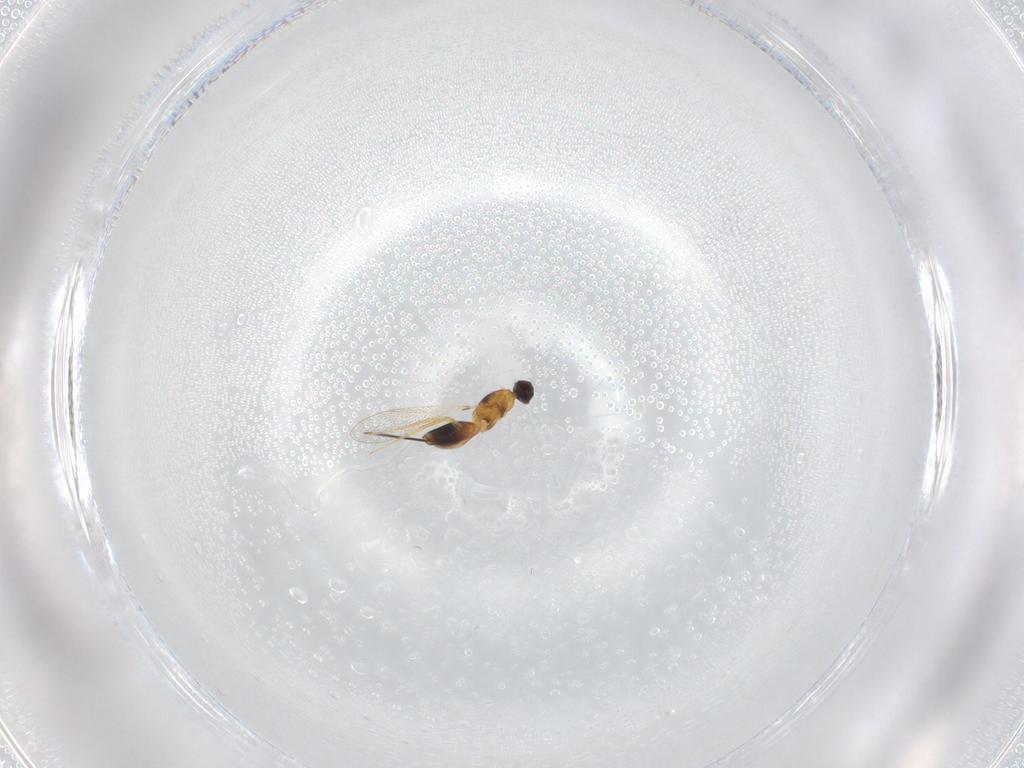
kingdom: Animalia
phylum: Arthropoda
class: Insecta
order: Hymenoptera
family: Mymaridae
